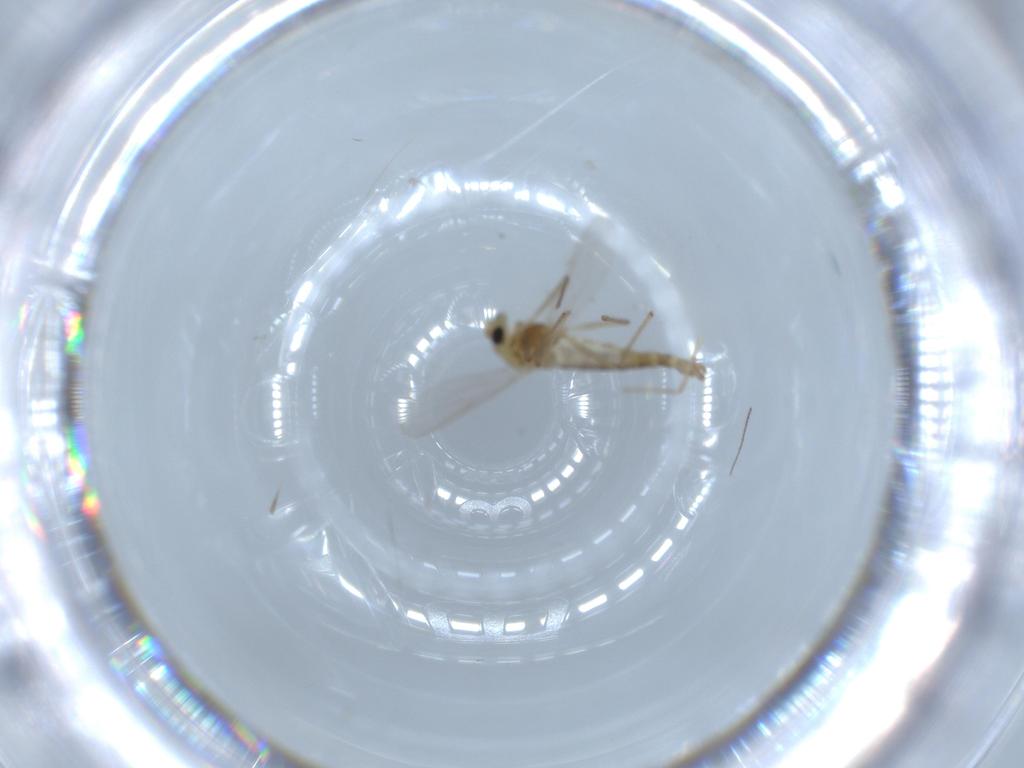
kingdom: Animalia
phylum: Arthropoda
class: Insecta
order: Diptera
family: Chironomidae
